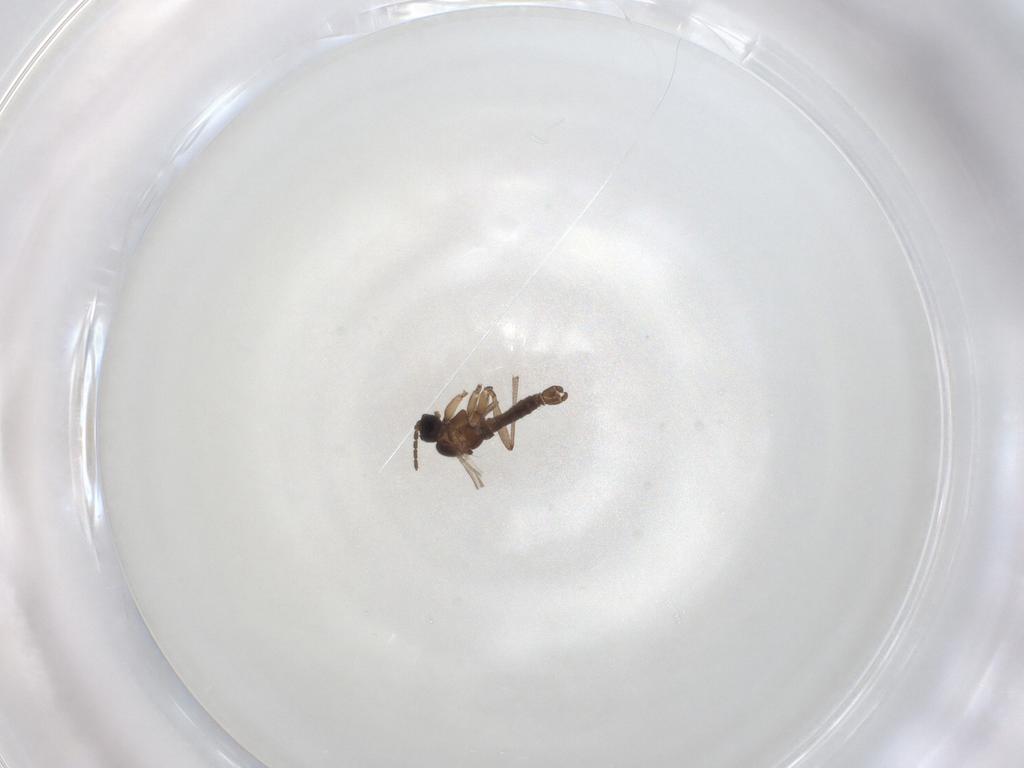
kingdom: Animalia
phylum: Arthropoda
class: Insecta
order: Diptera
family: Sciaridae
